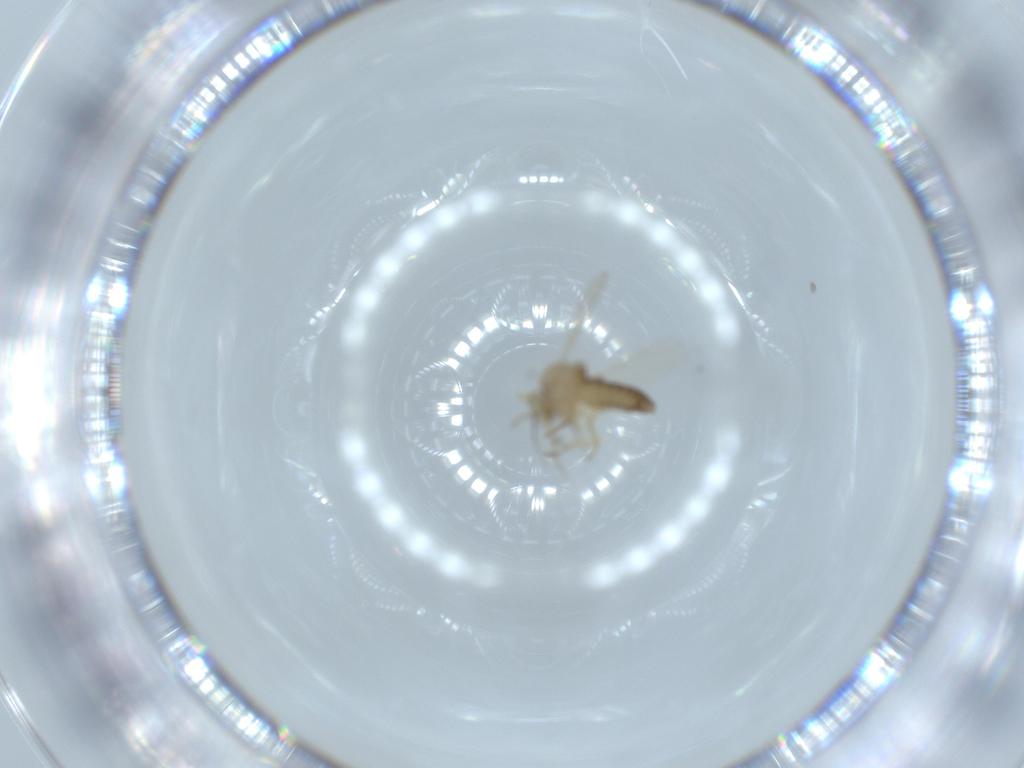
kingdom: Animalia
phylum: Arthropoda
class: Insecta
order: Diptera
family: Ceratopogonidae
